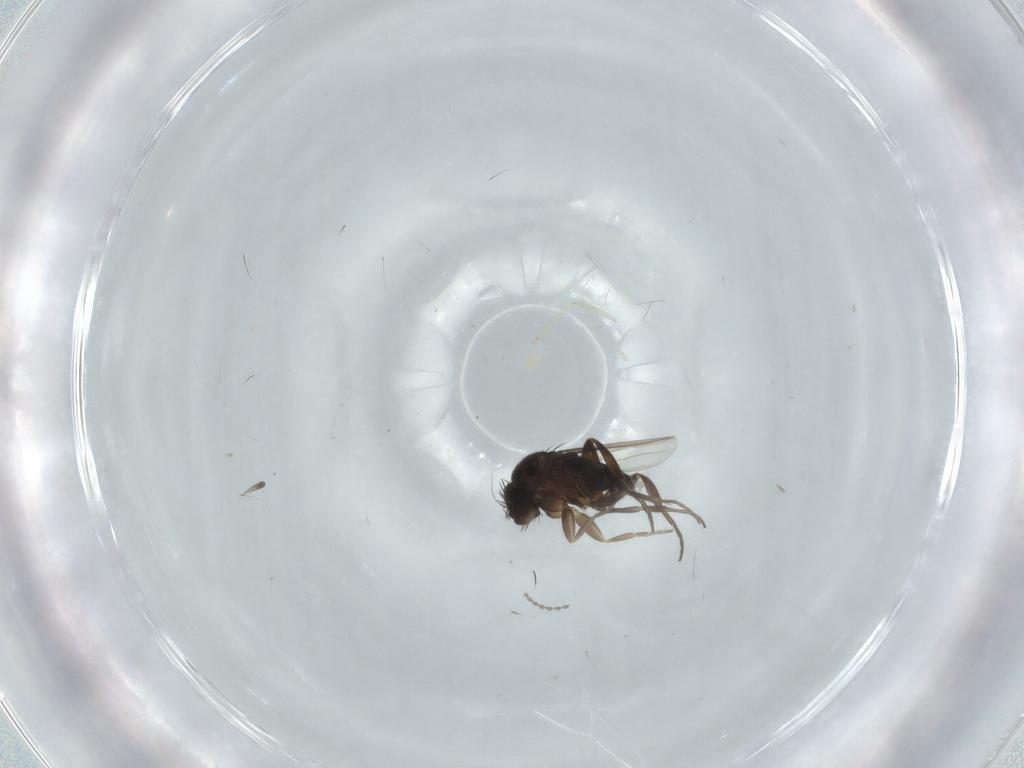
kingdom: Animalia
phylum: Arthropoda
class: Insecta
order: Diptera
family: Phoridae
